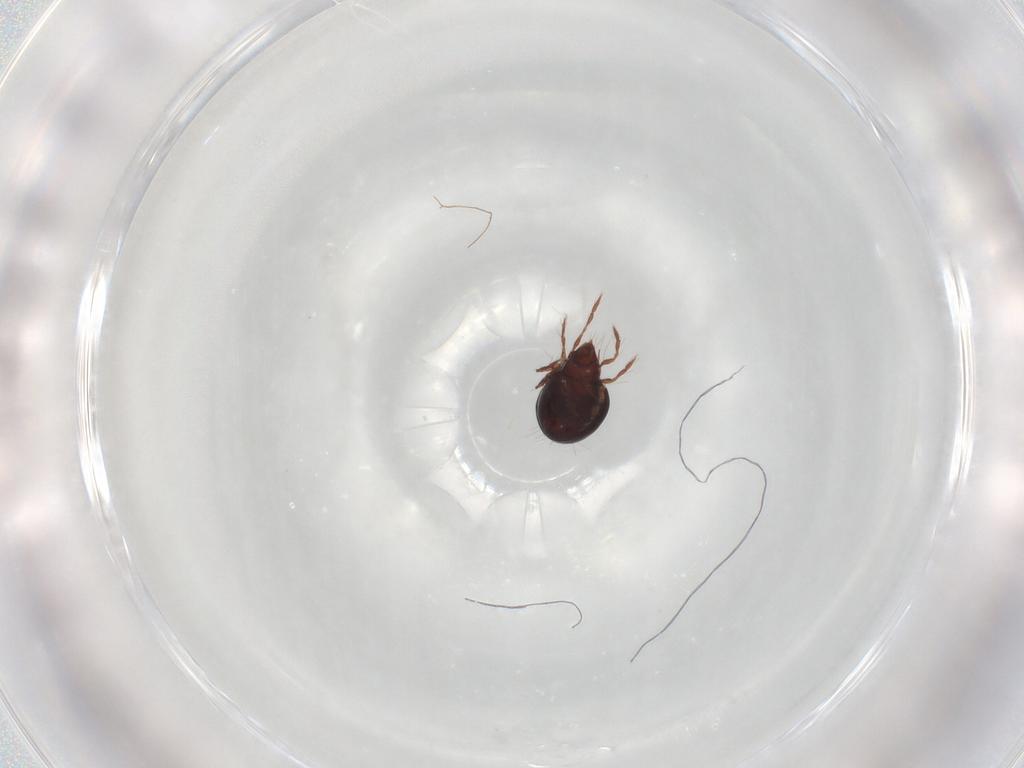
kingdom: Animalia
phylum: Arthropoda
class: Arachnida
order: Sarcoptiformes
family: Ceratoppiidae
